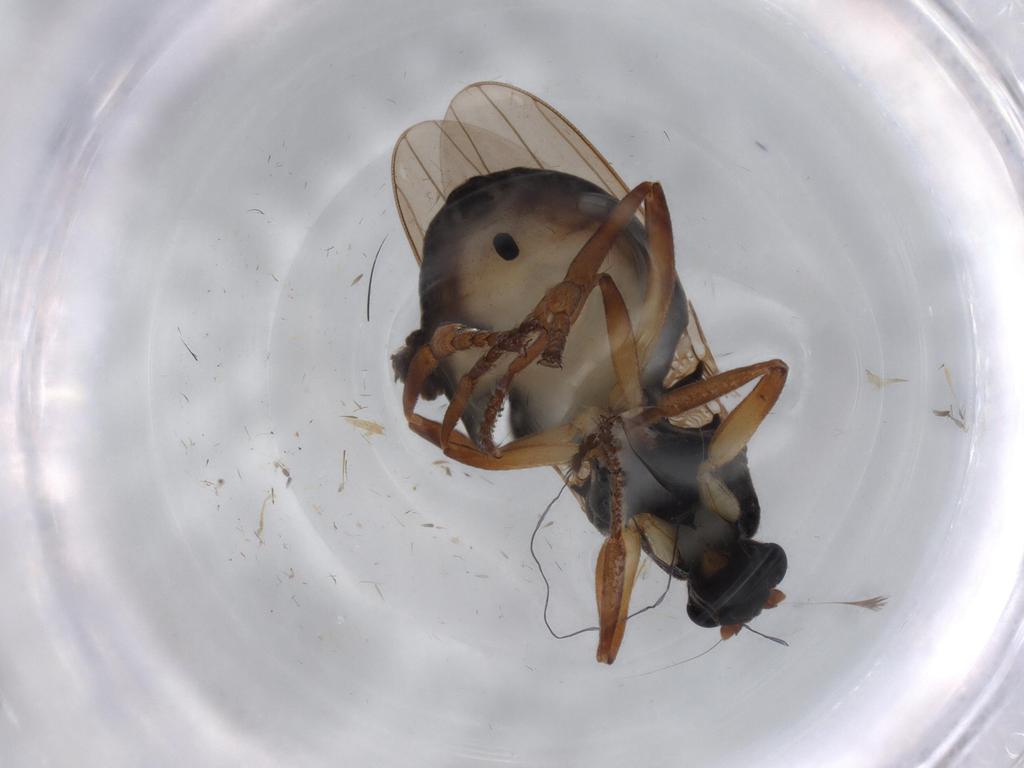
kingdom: Animalia
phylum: Arthropoda
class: Insecta
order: Diptera
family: Sphaeroceridae
